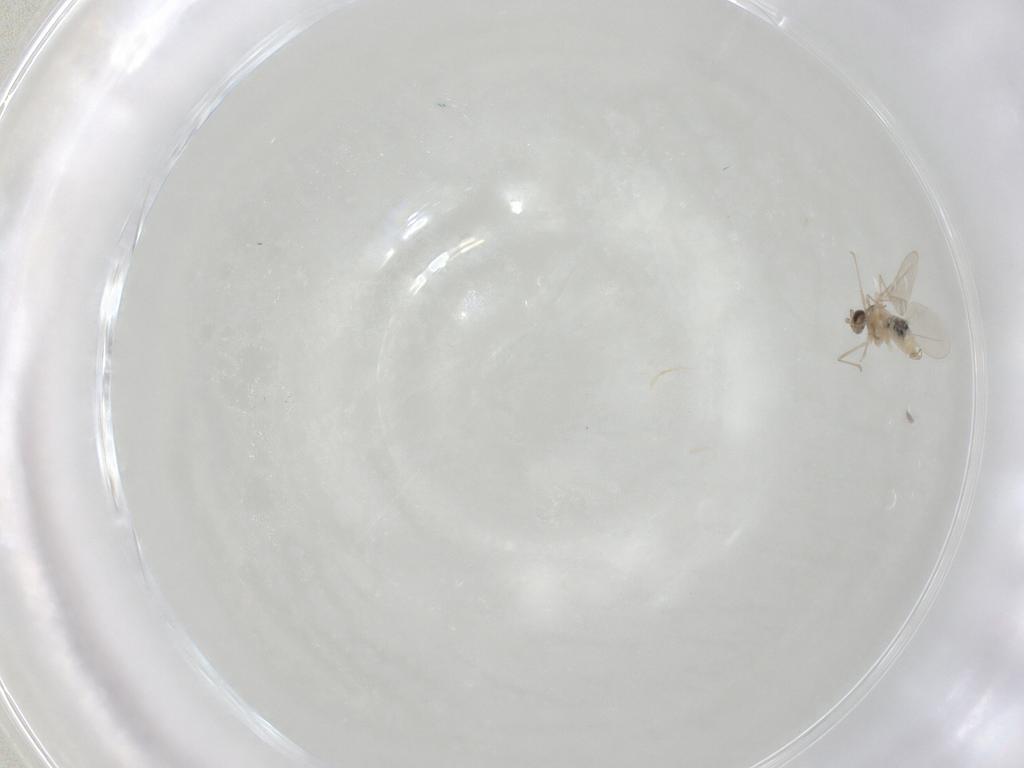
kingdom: Animalia
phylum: Arthropoda
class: Insecta
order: Diptera
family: Cecidomyiidae
